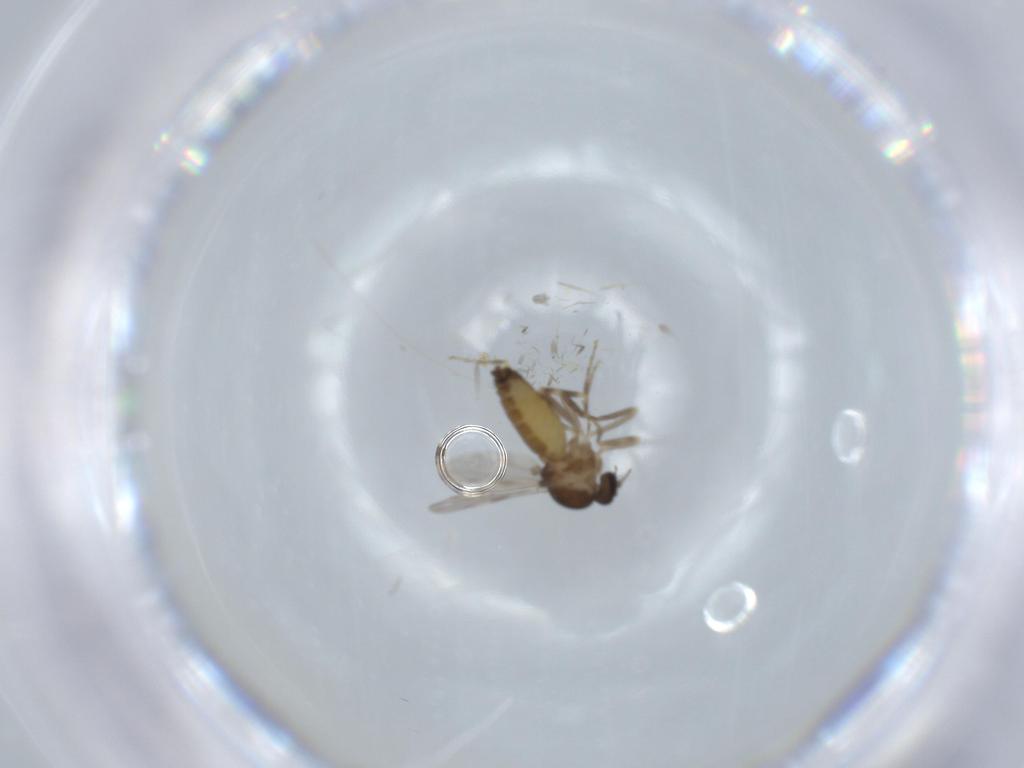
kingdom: Animalia
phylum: Arthropoda
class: Insecta
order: Diptera
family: Ceratopogonidae
